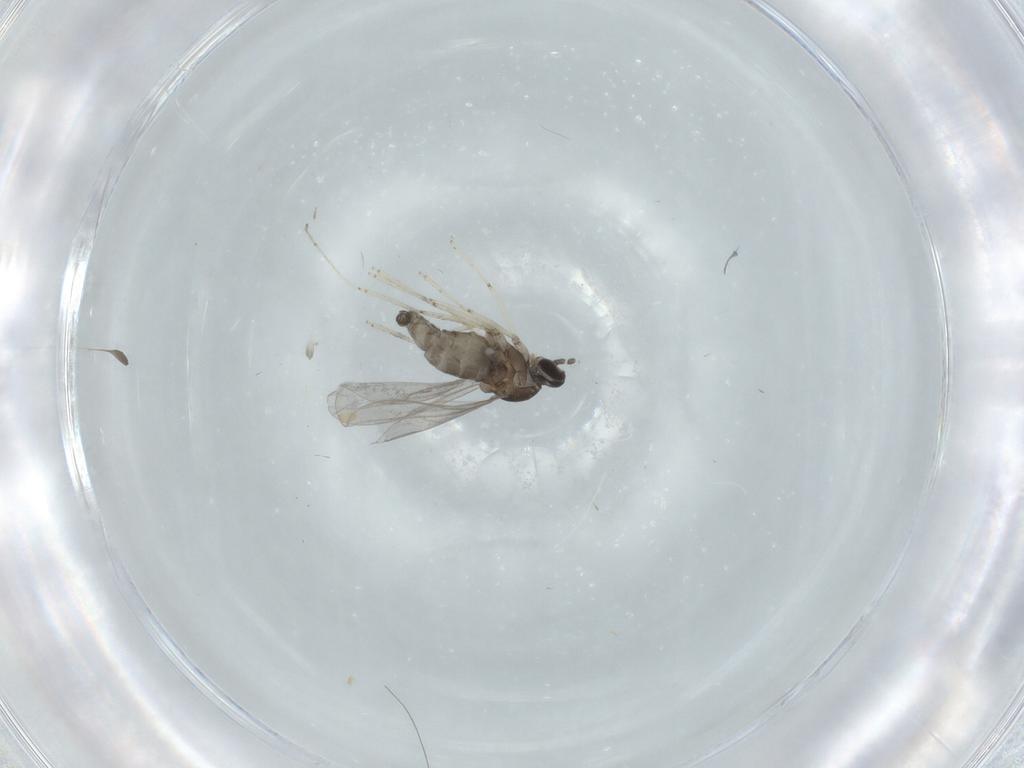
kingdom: Animalia
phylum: Arthropoda
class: Insecta
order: Diptera
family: Cecidomyiidae
